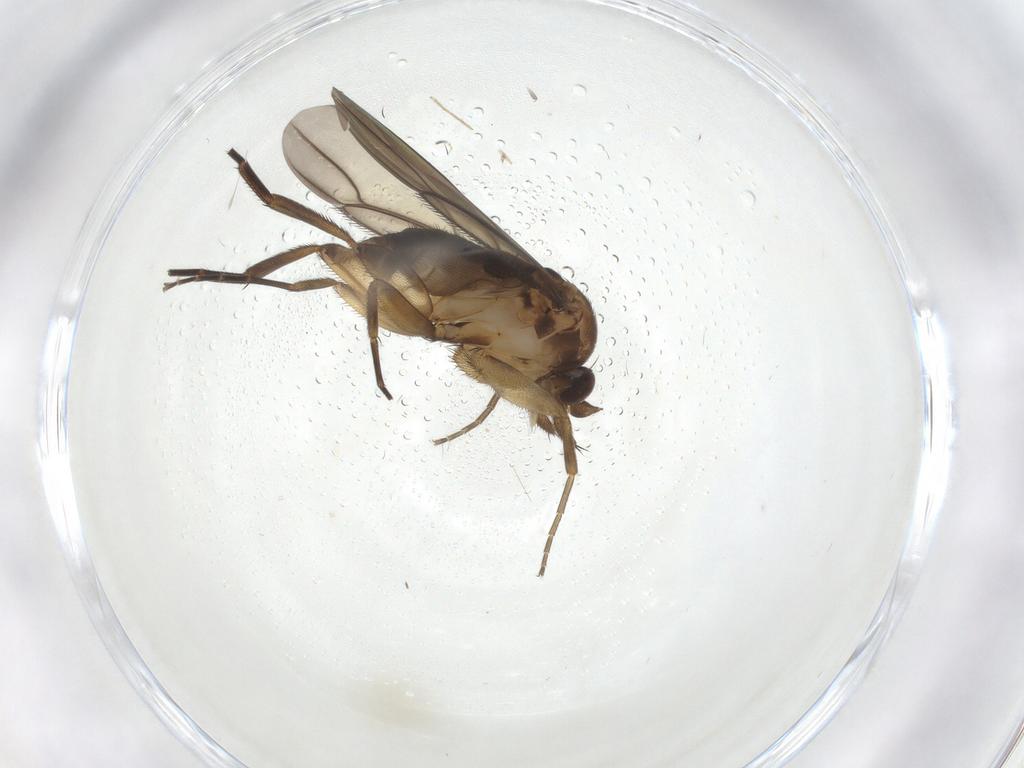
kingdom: Animalia
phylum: Arthropoda
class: Insecta
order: Diptera
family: Phoridae
